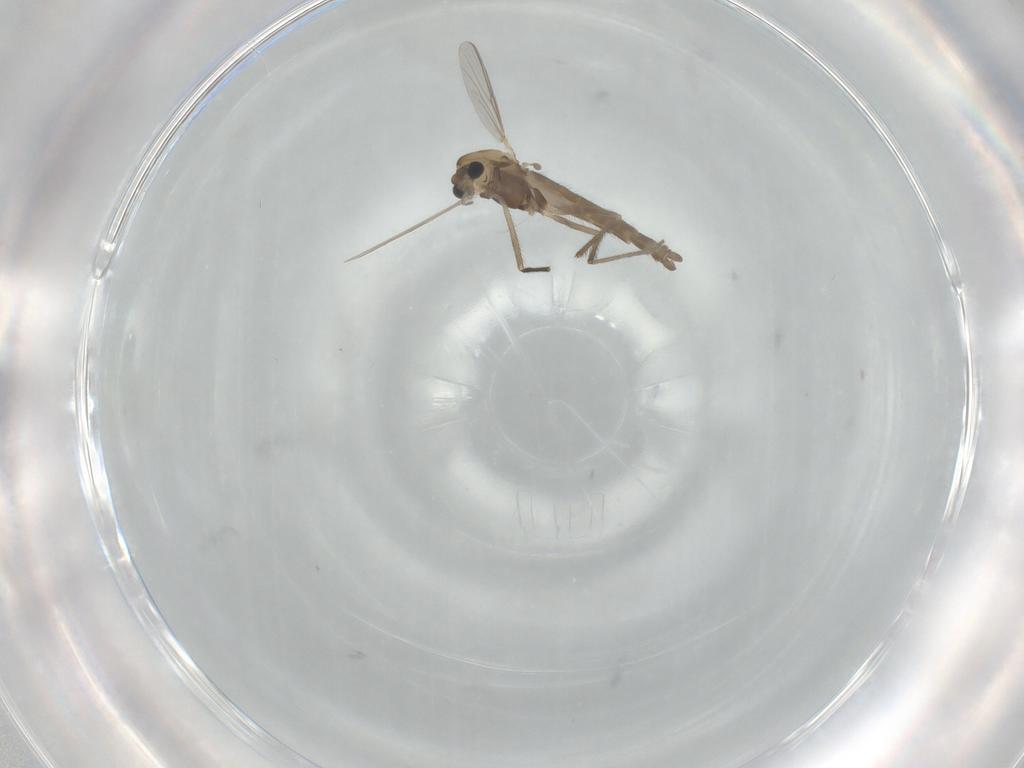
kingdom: Animalia
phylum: Arthropoda
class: Insecta
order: Diptera
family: Chironomidae
